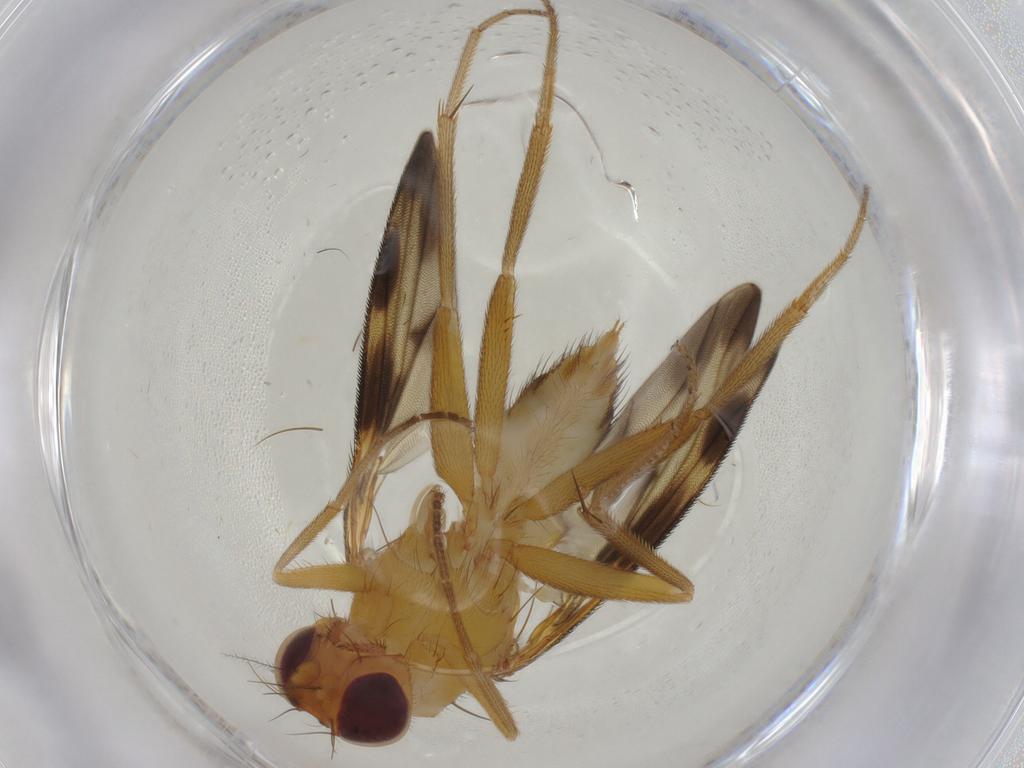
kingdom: Animalia
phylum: Arthropoda
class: Insecta
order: Diptera
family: Clusiidae
